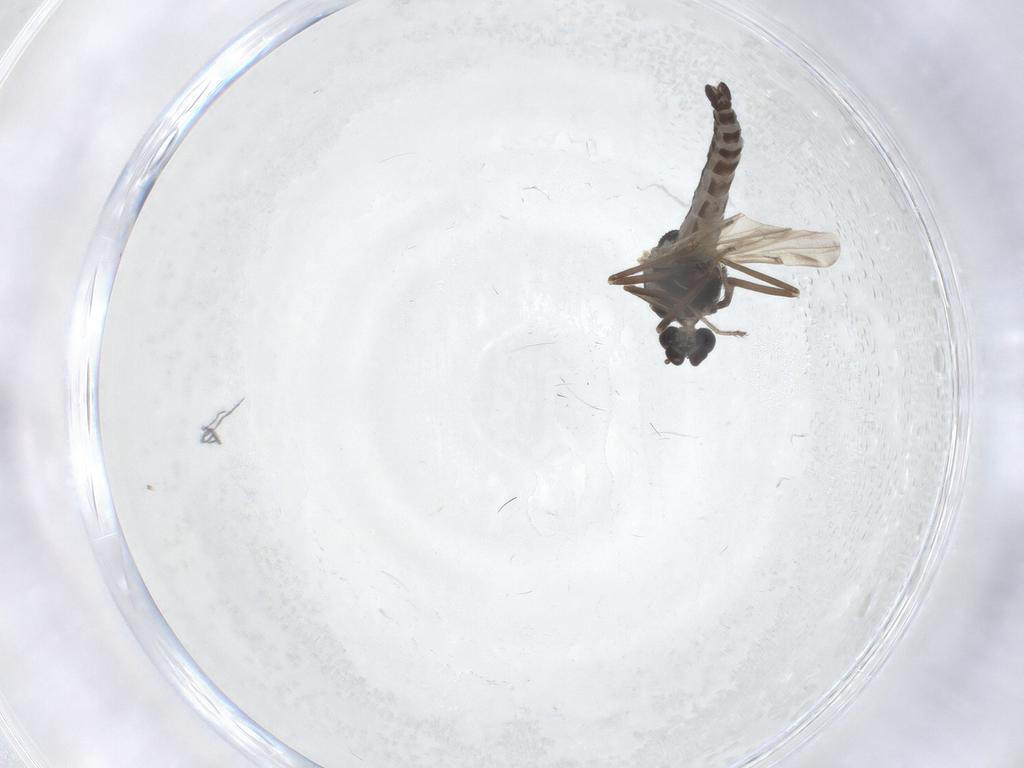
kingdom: Animalia
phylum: Arthropoda
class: Insecta
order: Diptera
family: Ceratopogonidae
